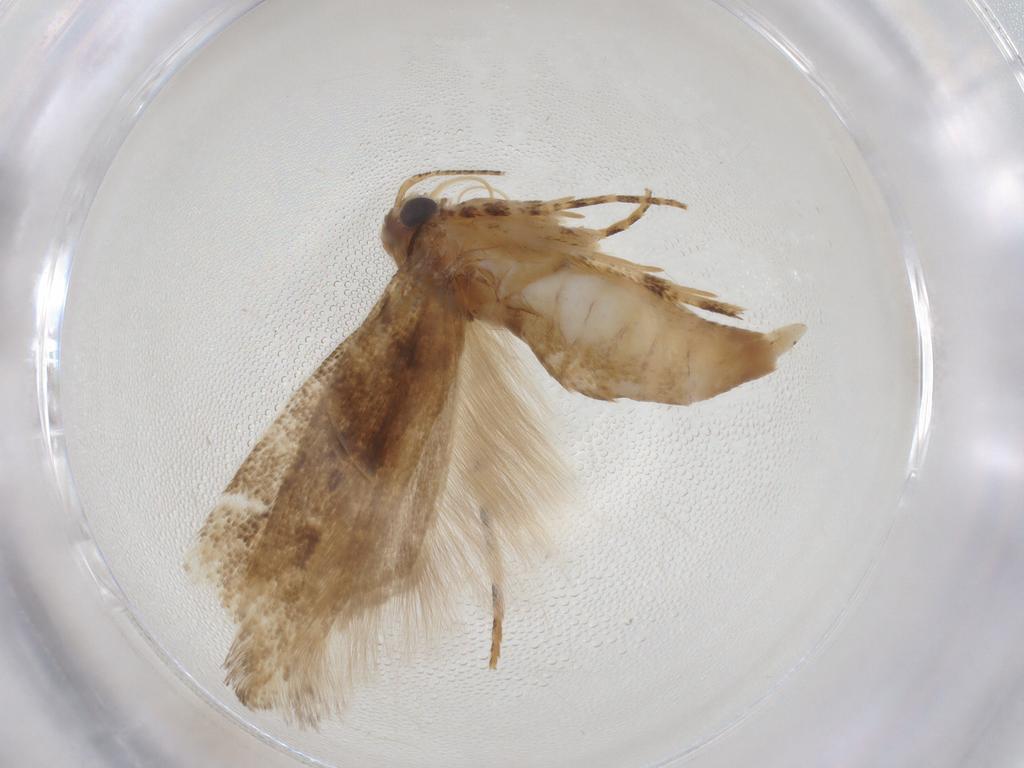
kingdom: Animalia
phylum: Arthropoda
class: Insecta
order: Lepidoptera
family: Gelechiidae
